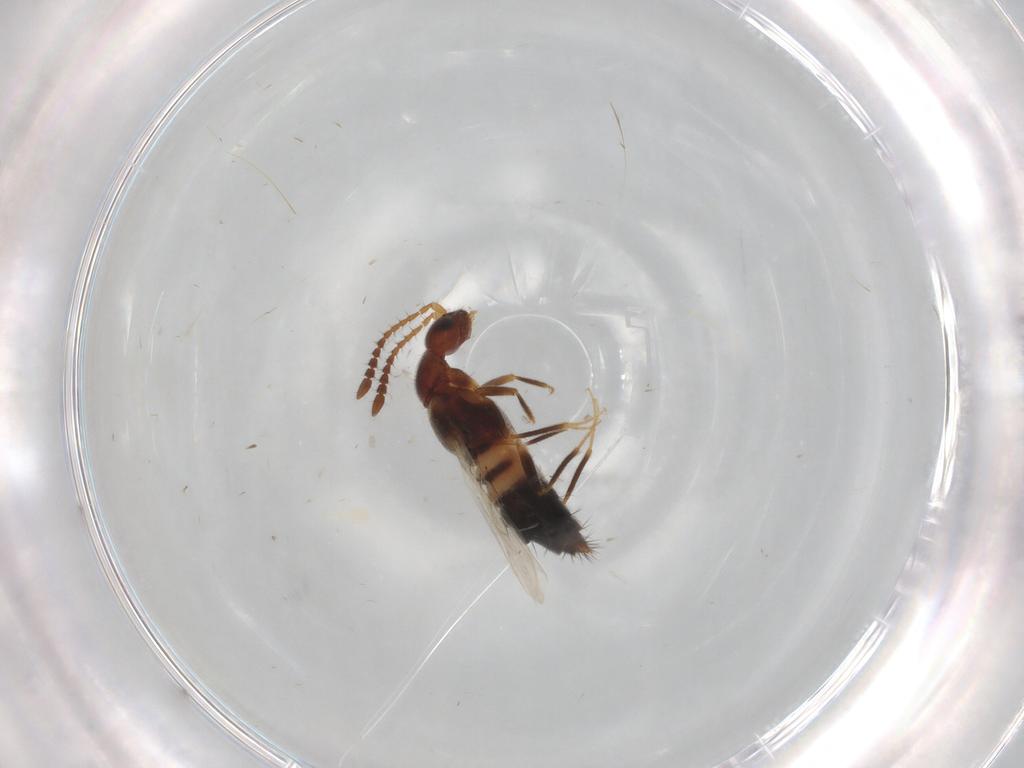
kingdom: Animalia
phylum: Arthropoda
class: Insecta
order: Coleoptera
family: Staphylinidae
